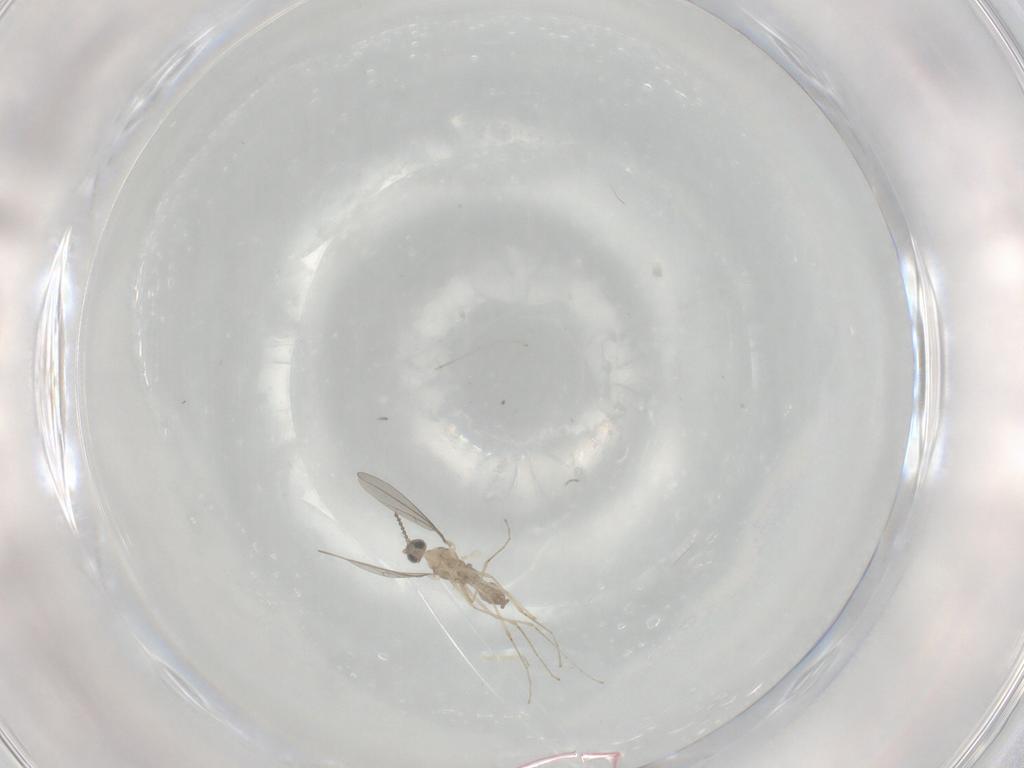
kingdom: Animalia
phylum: Arthropoda
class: Insecta
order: Diptera
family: Cecidomyiidae
